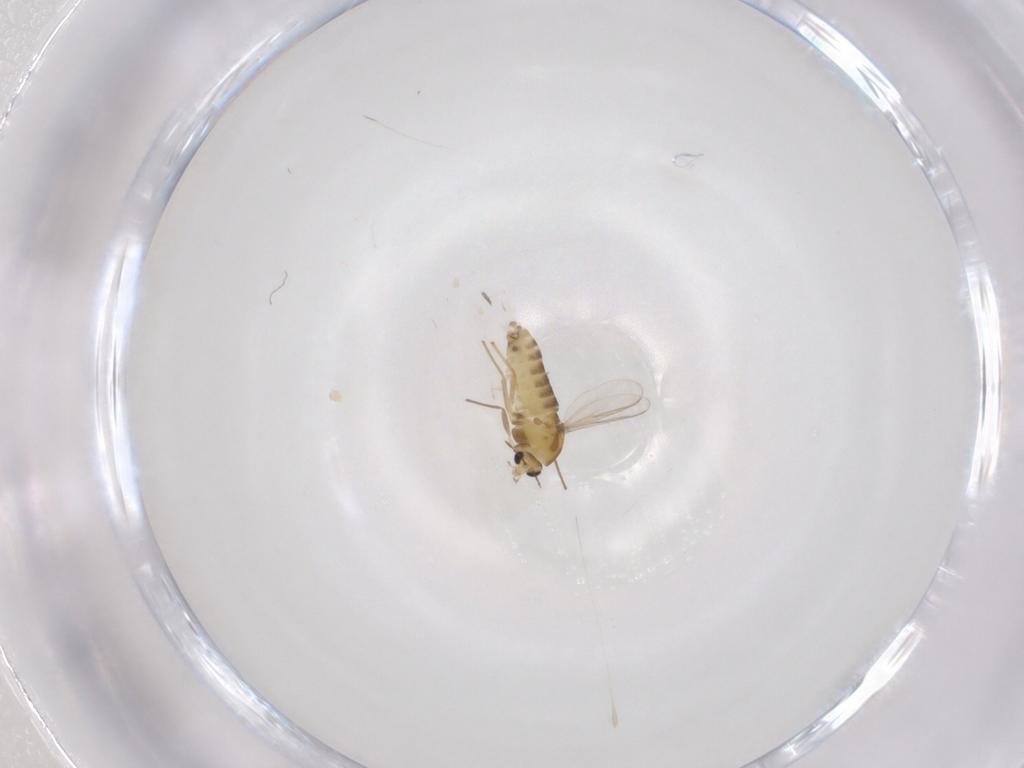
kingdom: Animalia
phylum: Arthropoda
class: Insecta
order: Diptera
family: Chironomidae
